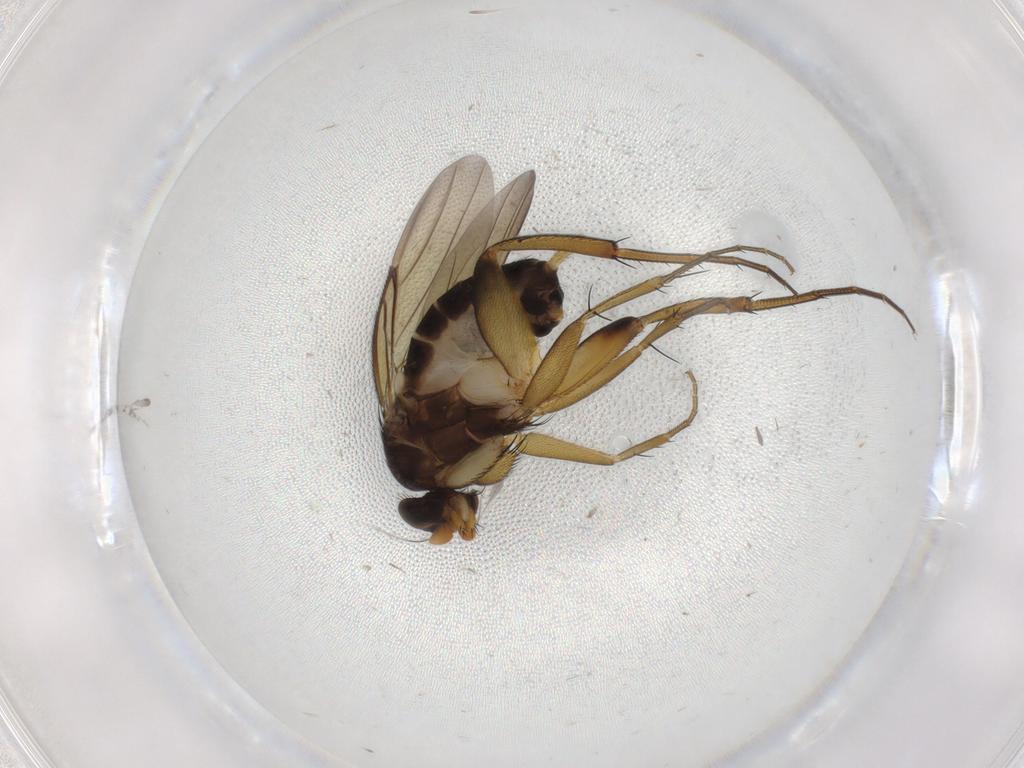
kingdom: Animalia
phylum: Arthropoda
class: Insecta
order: Diptera
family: Phoridae
